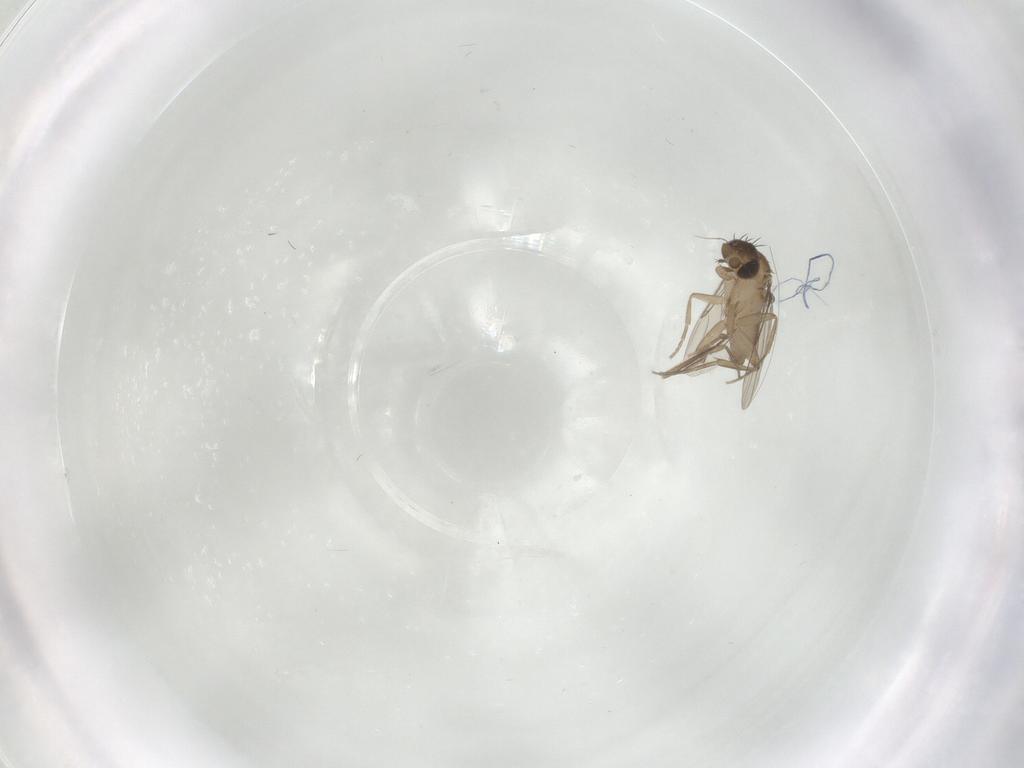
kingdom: Animalia
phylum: Arthropoda
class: Insecta
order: Diptera
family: Phoridae
